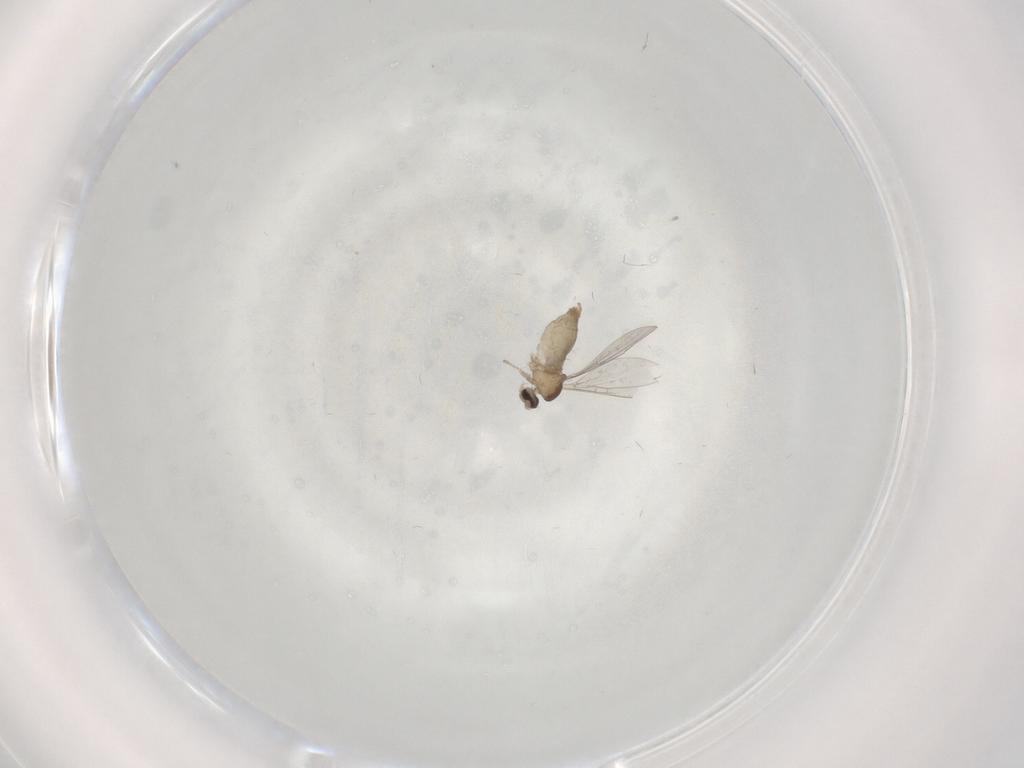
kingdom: Animalia
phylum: Arthropoda
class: Insecta
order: Diptera
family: Cecidomyiidae
